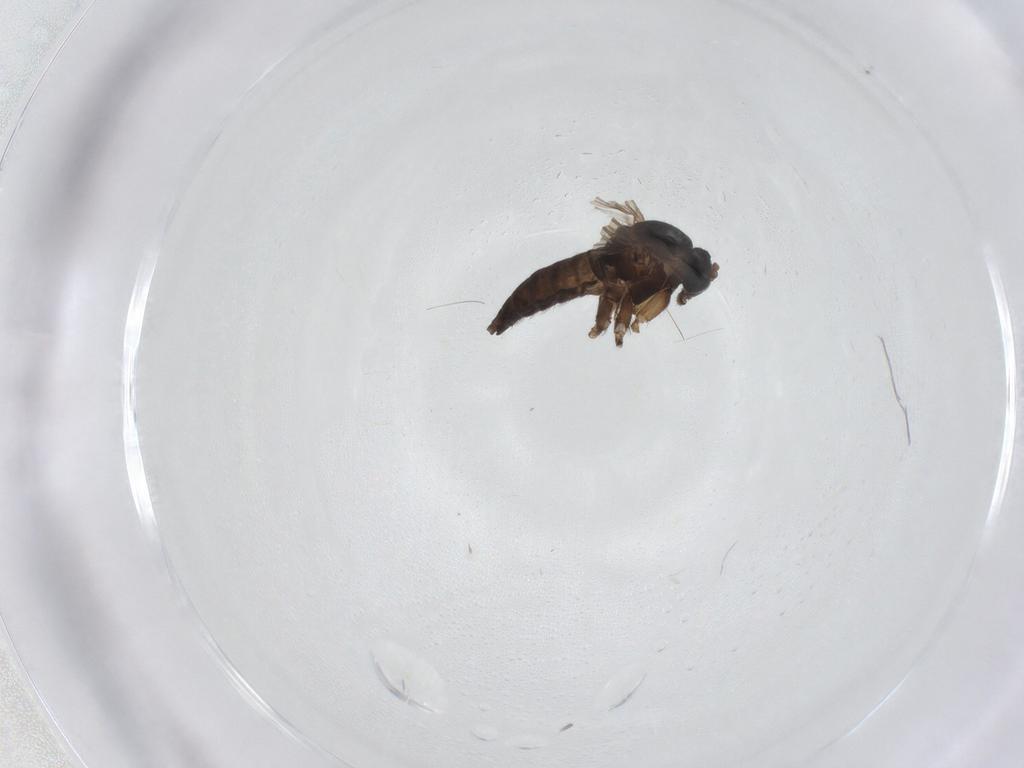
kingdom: Animalia
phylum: Arthropoda
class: Insecta
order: Diptera
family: Sciaridae
